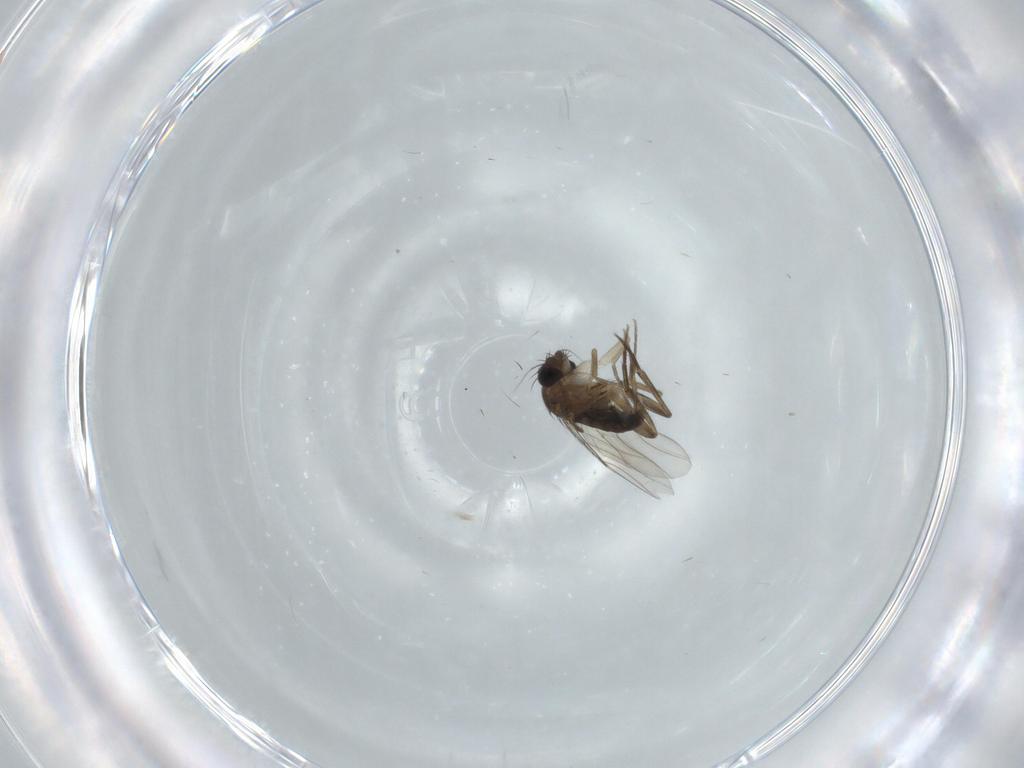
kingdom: Animalia
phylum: Arthropoda
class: Insecta
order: Diptera
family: Phoridae
